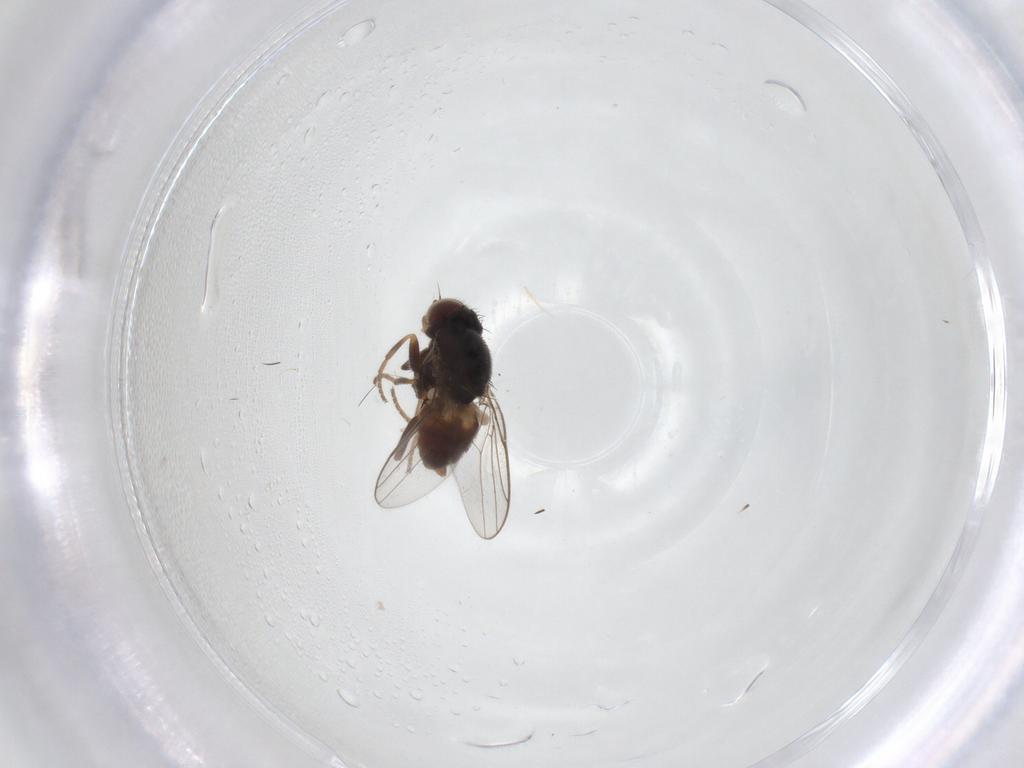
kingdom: Animalia
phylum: Arthropoda
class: Insecta
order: Diptera
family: Chloropidae
